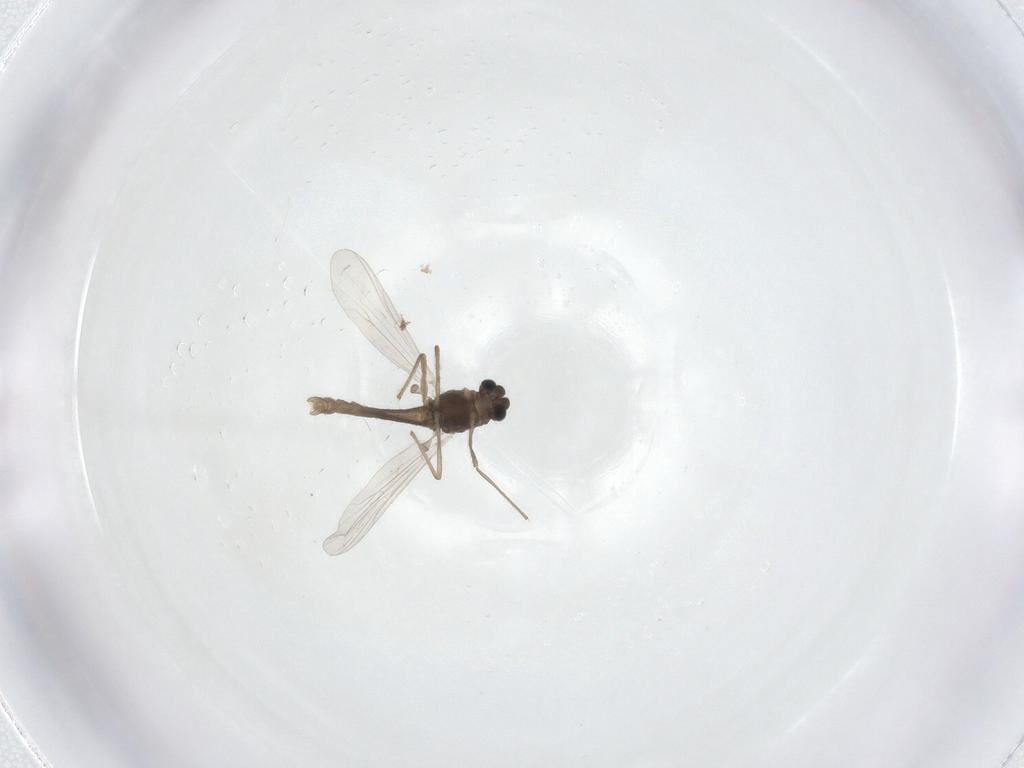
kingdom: Animalia
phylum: Arthropoda
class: Insecta
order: Diptera
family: Chironomidae
